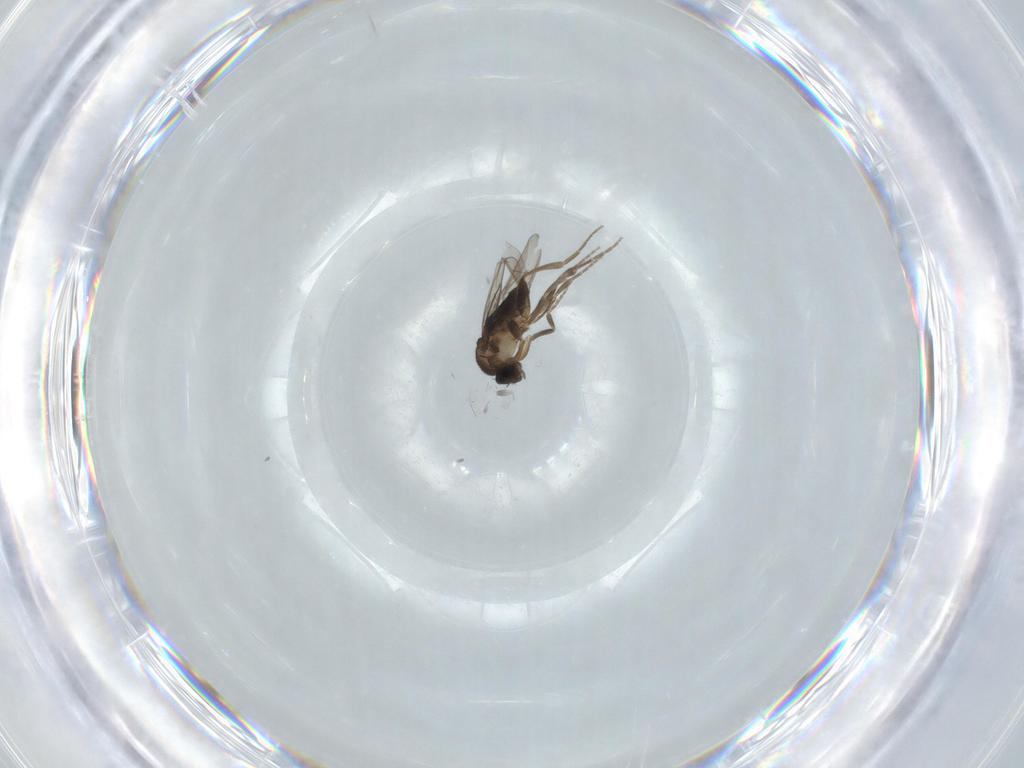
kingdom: Animalia
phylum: Arthropoda
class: Insecta
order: Diptera
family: Phoridae
